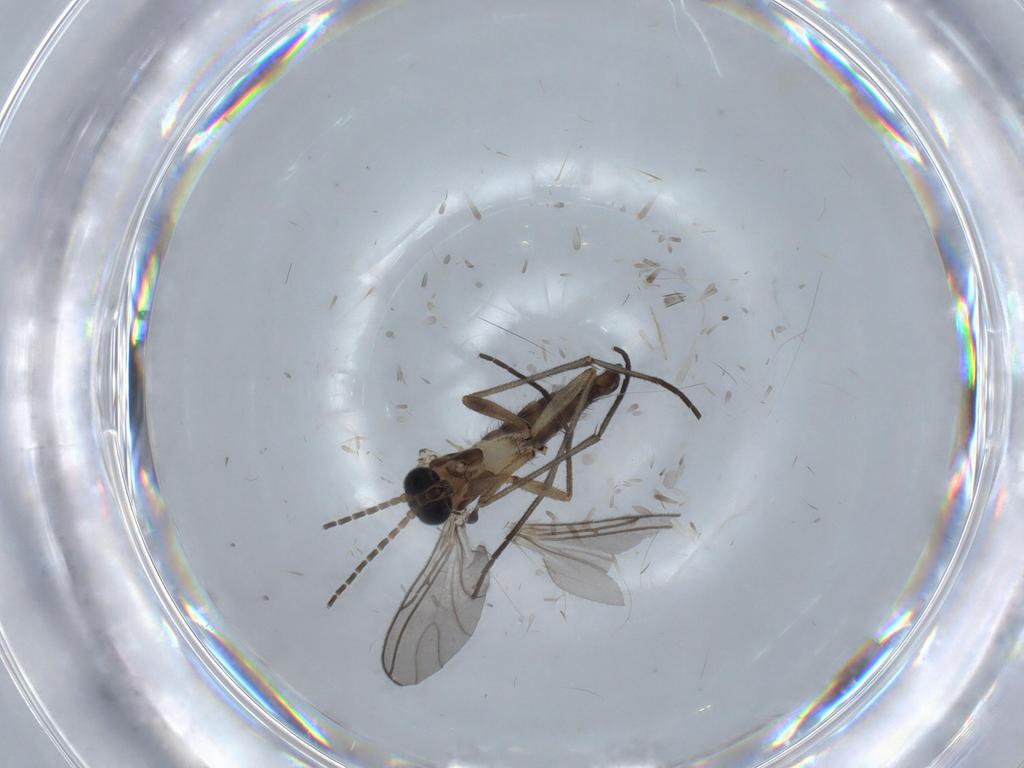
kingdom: Animalia
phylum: Arthropoda
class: Insecta
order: Diptera
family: Sciaridae
